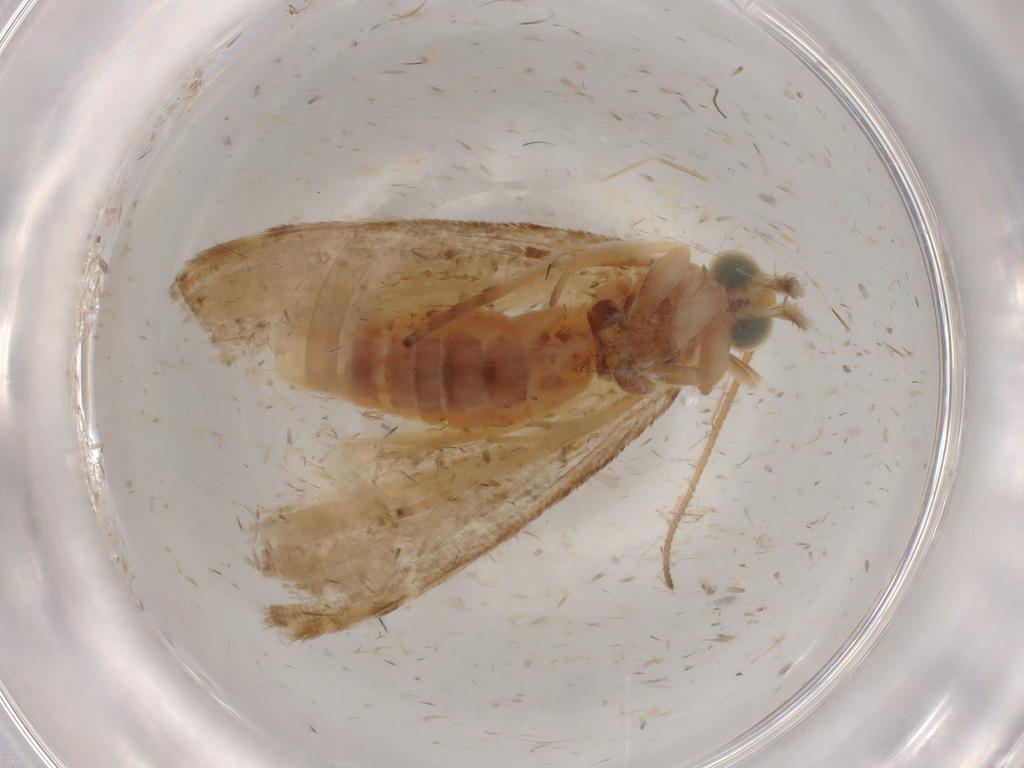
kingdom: Animalia
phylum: Arthropoda
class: Insecta
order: Lepidoptera
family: Pyralidae
